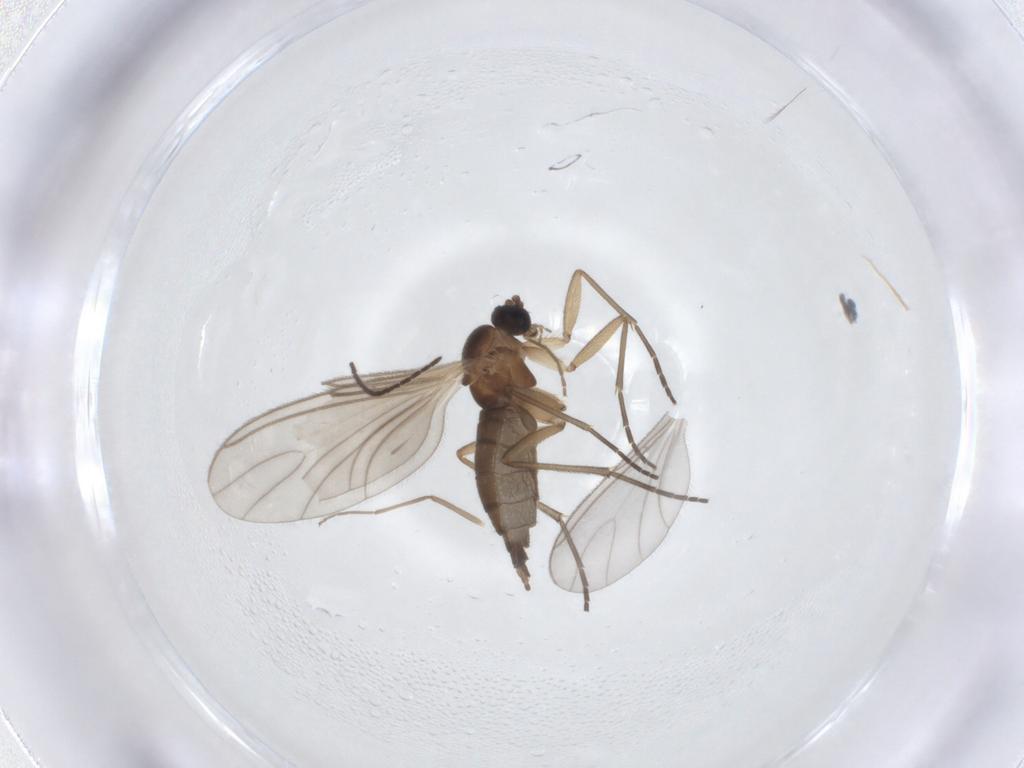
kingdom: Animalia
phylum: Arthropoda
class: Insecta
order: Diptera
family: Sciaridae
